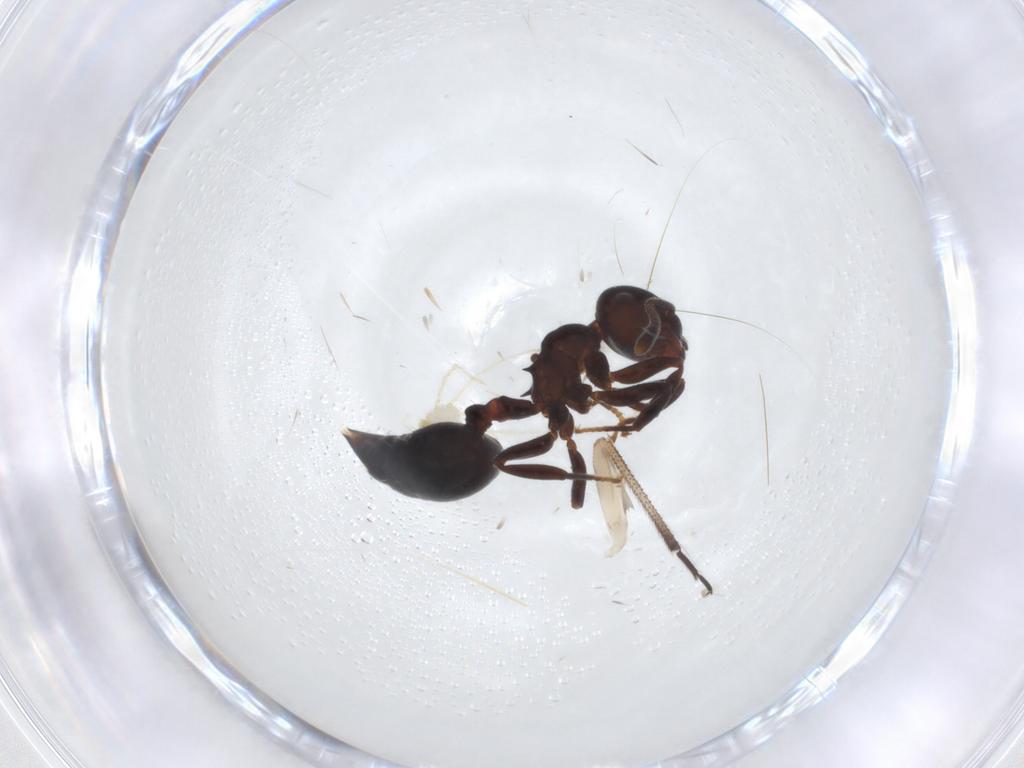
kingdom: Animalia
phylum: Arthropoda
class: Insecta
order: Hymenoptera
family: Formicidae
